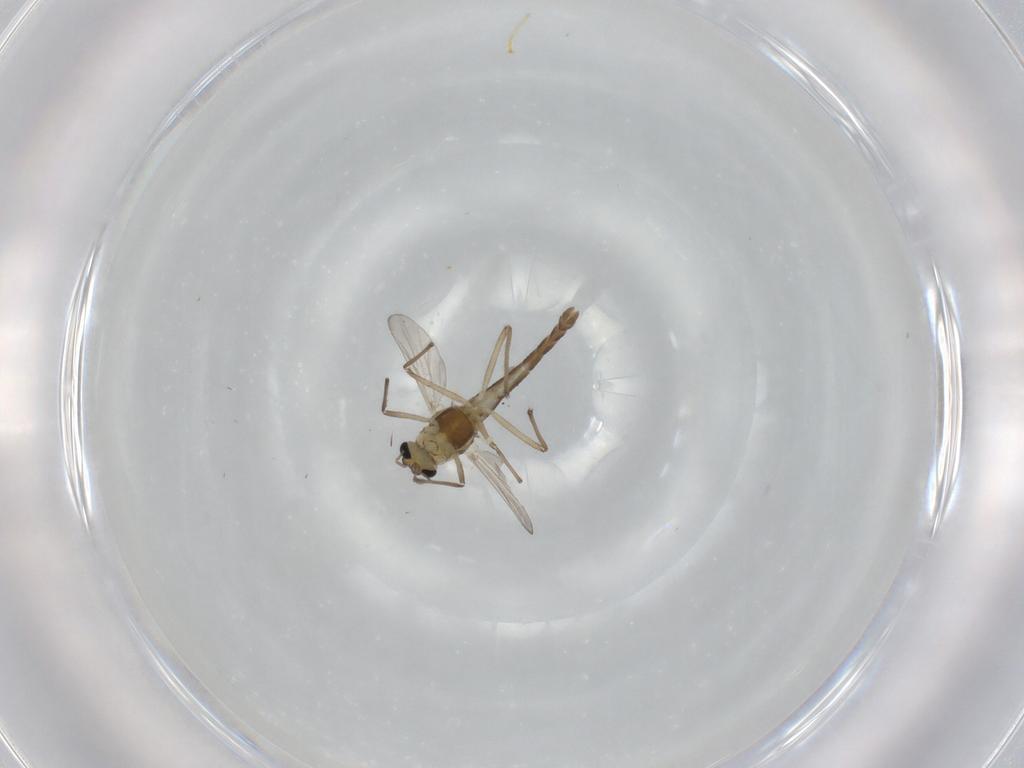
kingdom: Animalia
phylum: Arthropoda
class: Insecta
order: Diptera
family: Chironomidae
